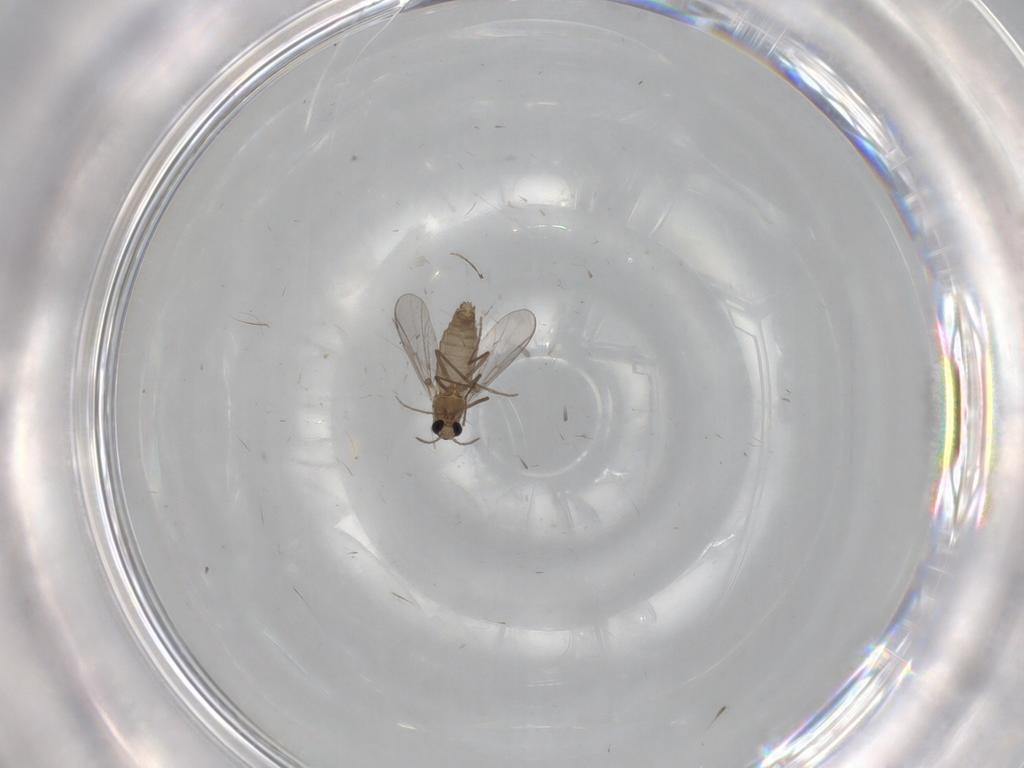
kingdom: Animalia
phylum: Arthropoda
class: Insecta
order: Diptera
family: Chironomidae
